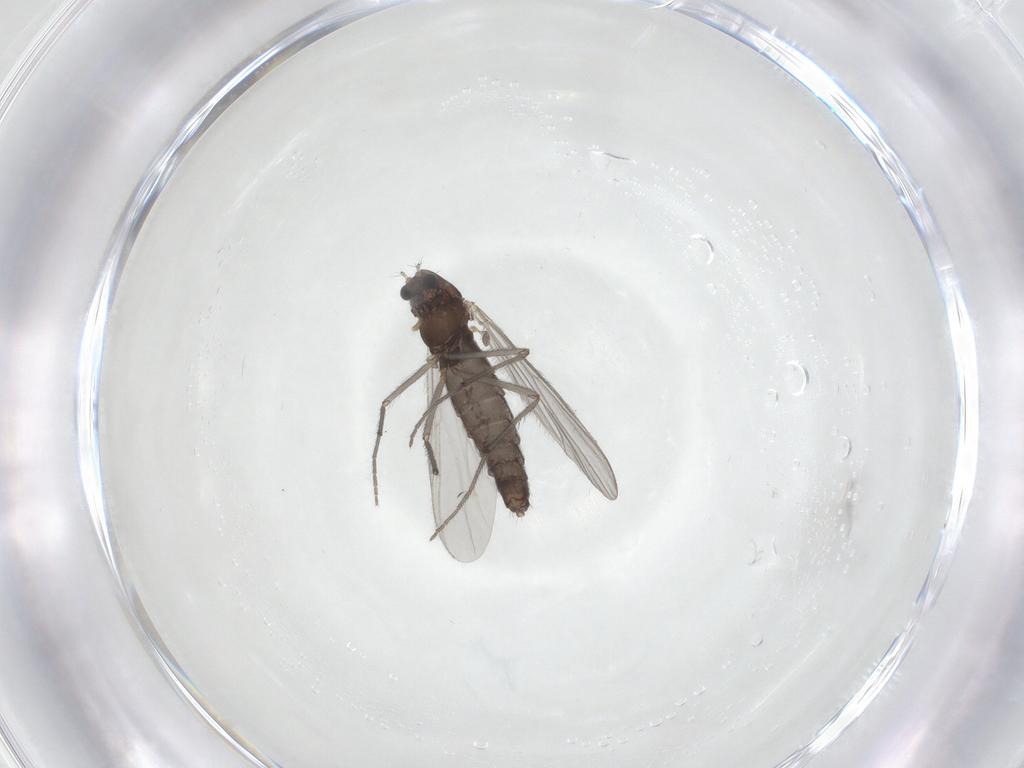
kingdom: Animalia
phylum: Arthropoda
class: Insecta
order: Diptera
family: Chironomidae
